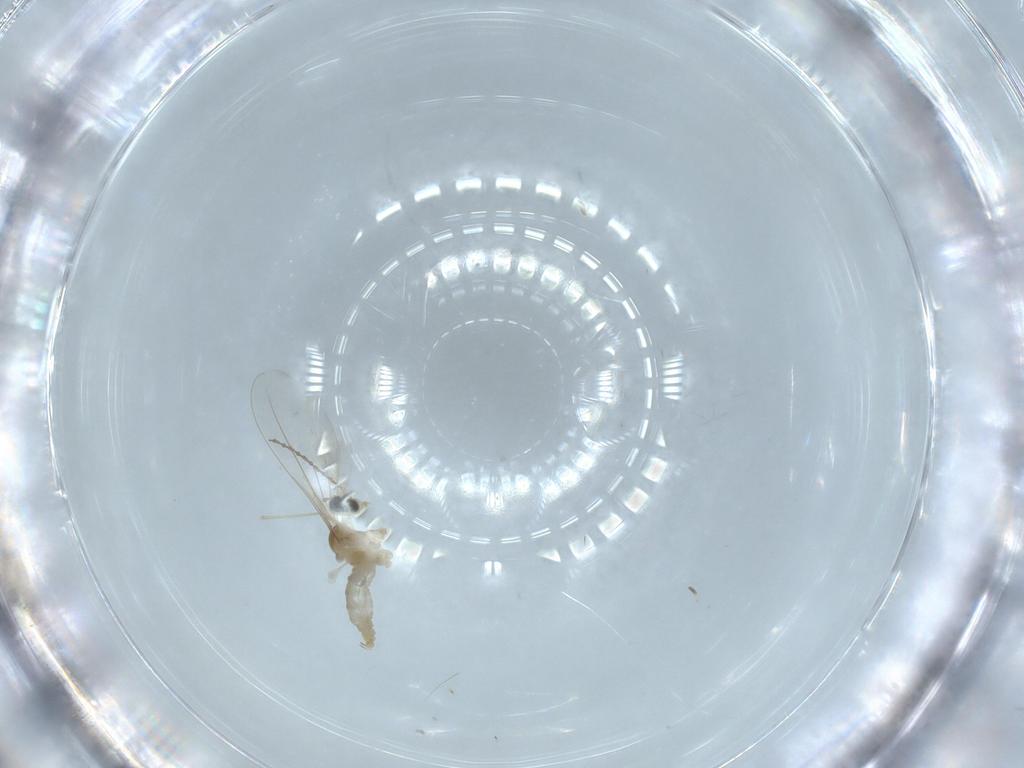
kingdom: Animalia
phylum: Arthropoda
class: Insecta
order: Diptera
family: Cecidomyiidae
